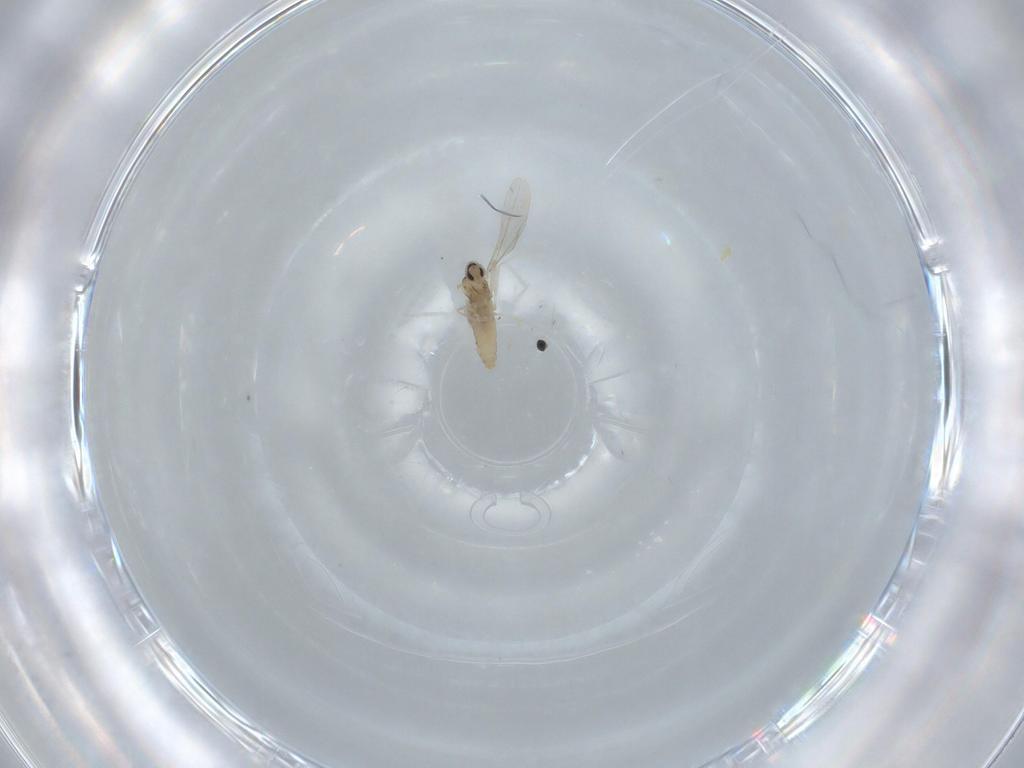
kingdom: Animalia
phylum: Arthropoda
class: Insecta
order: Diptera
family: Cecidomyiidae
